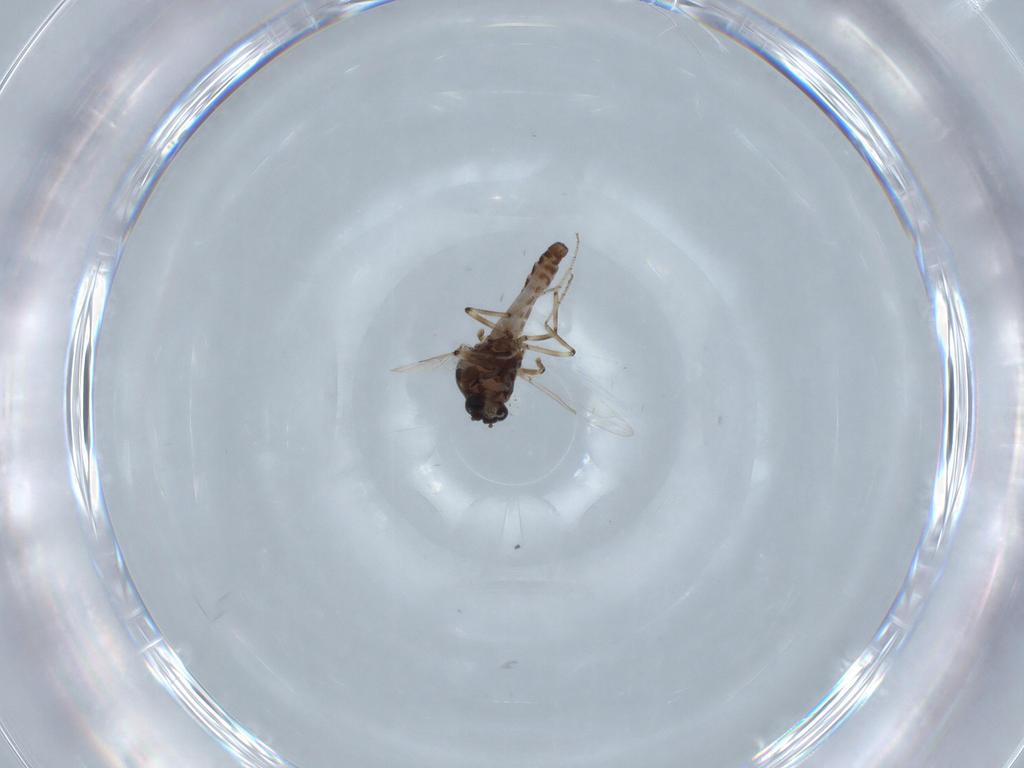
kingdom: Animalia
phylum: Arthropoda
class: Insecta
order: Diptera
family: Ceratopogonidae
